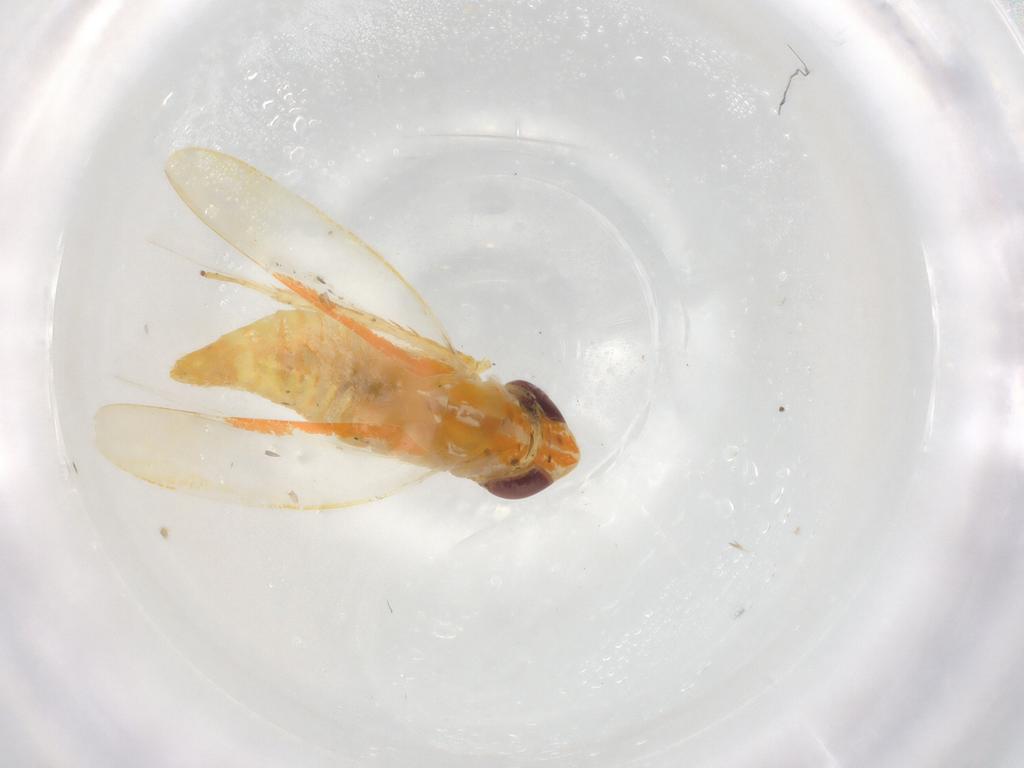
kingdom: Animalia
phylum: Arthropoda
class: Insecta
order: Hemiptera
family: Cicadellidae
